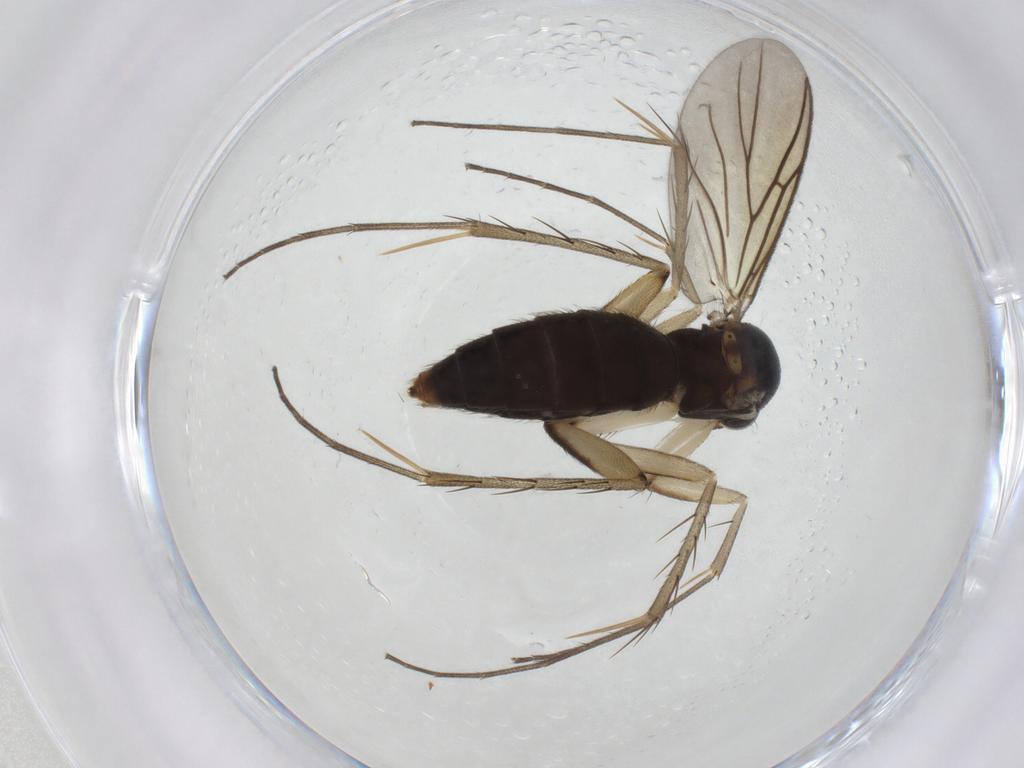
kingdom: Animalia
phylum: Arthropoda
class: Insecta
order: Diptera
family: Mycetophilidae
